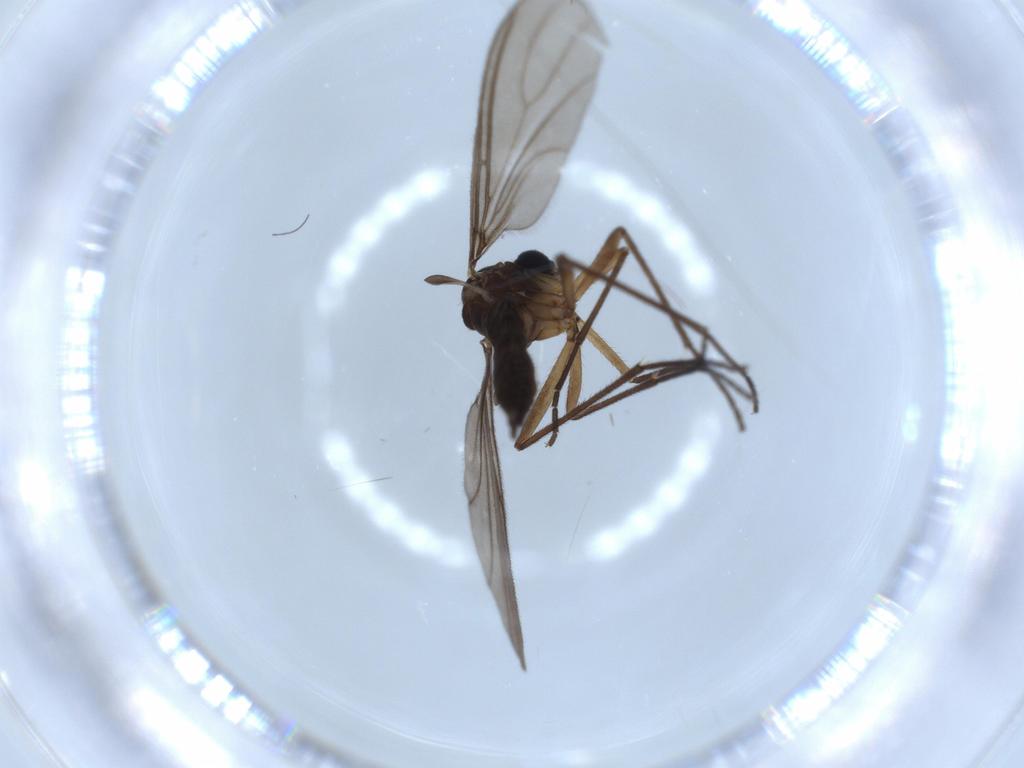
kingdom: Animalia
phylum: Arthropoda
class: Insecta
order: Diptera
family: Sciaridae
